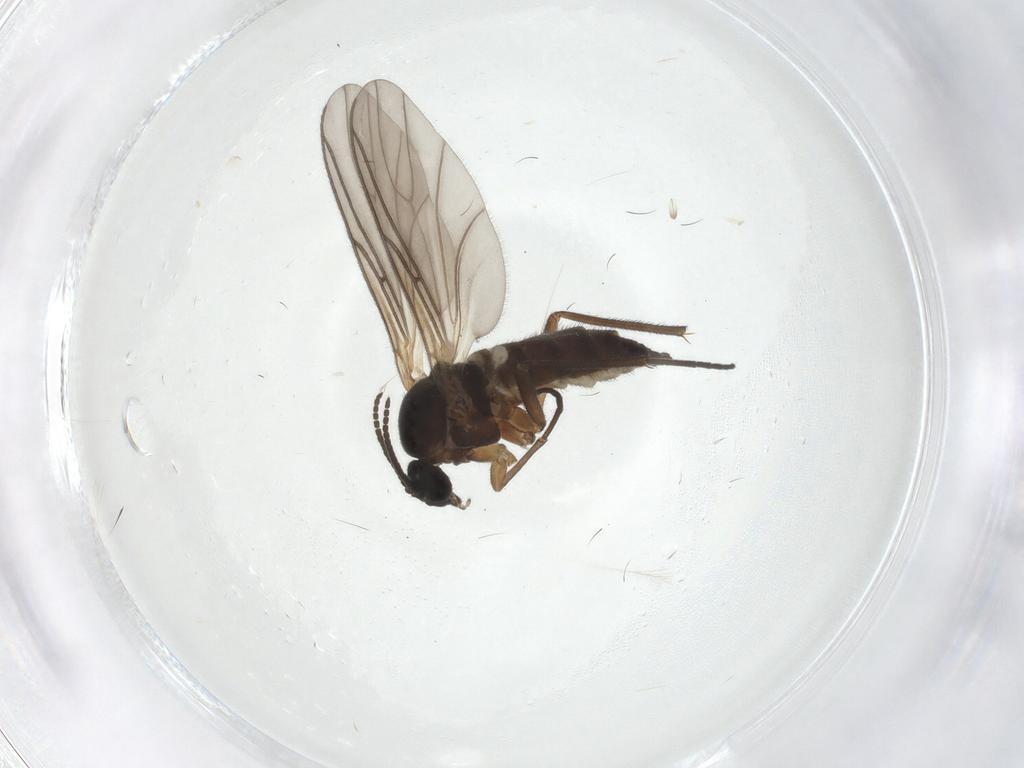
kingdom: Animalia
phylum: Arthropoda
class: Insecta
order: Diptera
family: Sciaridae
